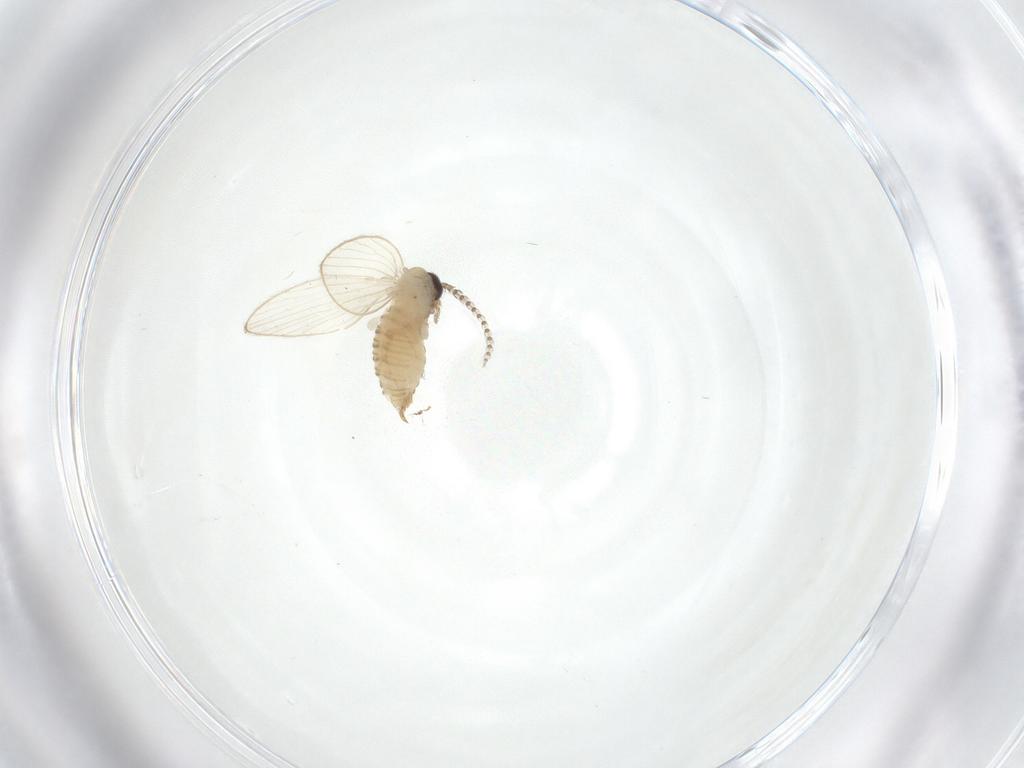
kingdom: Animalia
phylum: Arthropoda
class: Insecta
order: Diptera
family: Psychodidae
